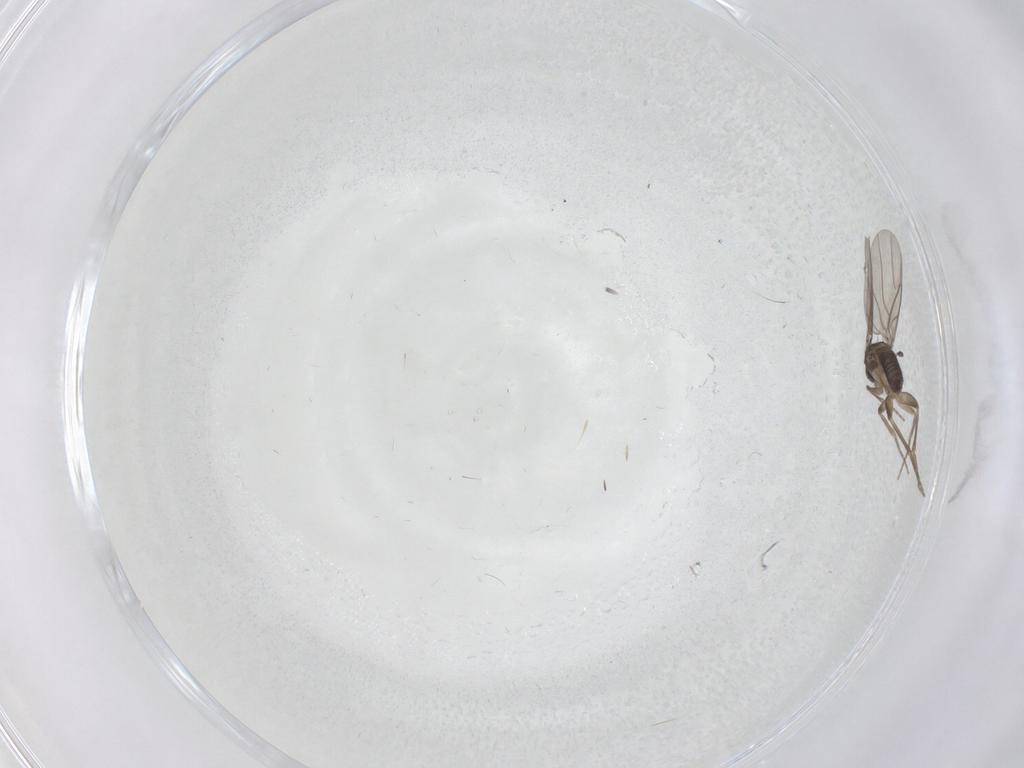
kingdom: Animalia
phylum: Arthropoda
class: Insecta
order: Diptera
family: Phoridae
